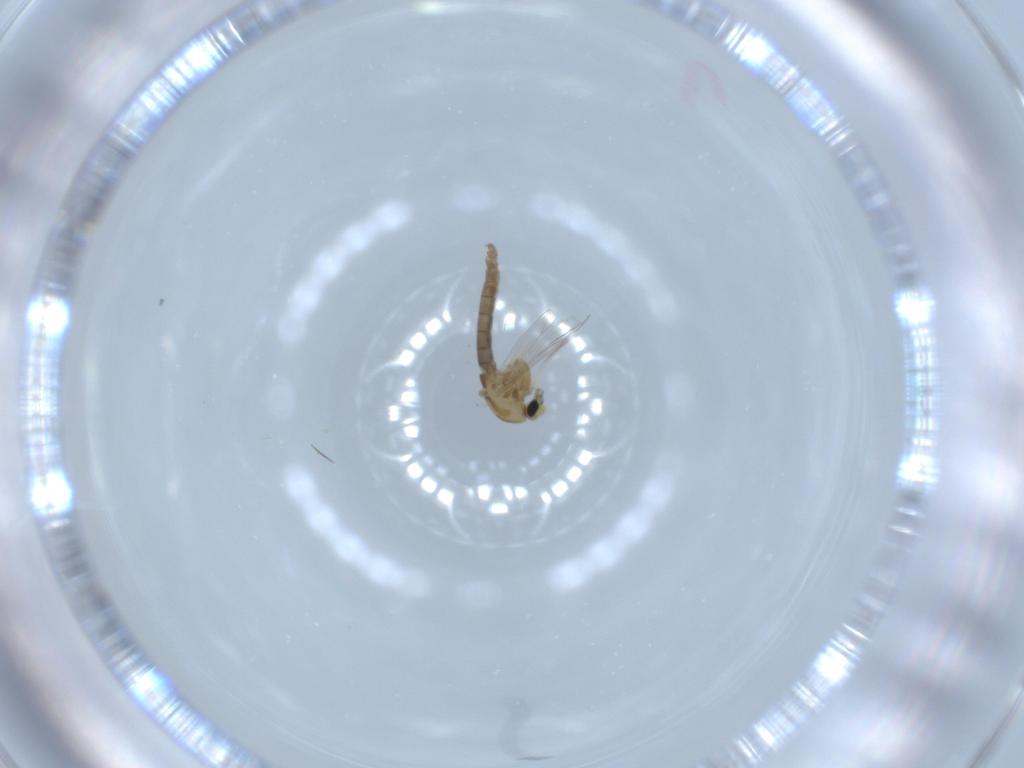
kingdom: Animalia
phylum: Arthropoda
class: Insecta
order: Diptera
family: Chironomidae
